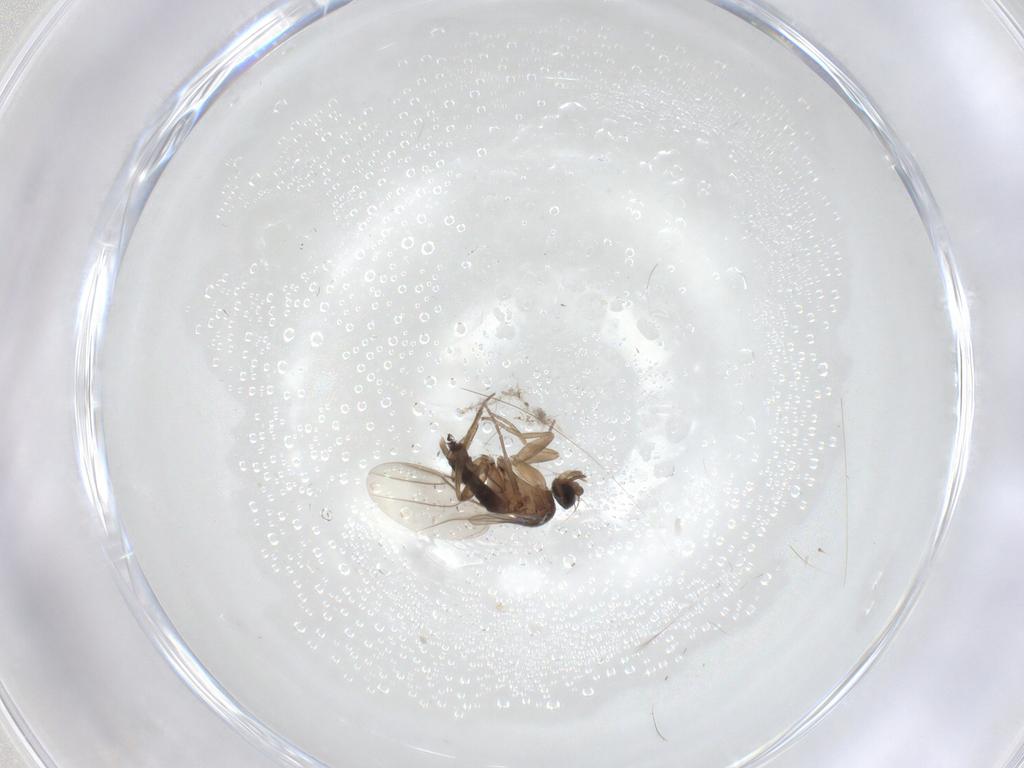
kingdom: Animalia
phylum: Arthropoda
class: Insecta
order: Diptera
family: Phoridae
